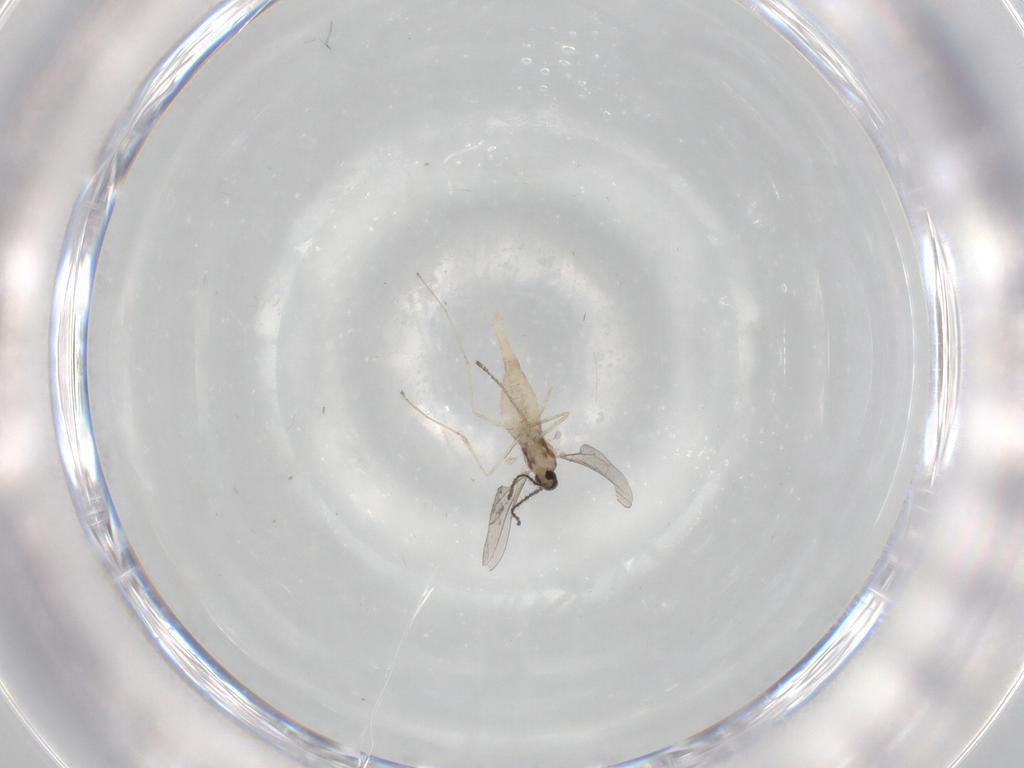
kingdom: Animalia
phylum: Arthropoda
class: Insecta
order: Diptera
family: Cecidomyiidae
